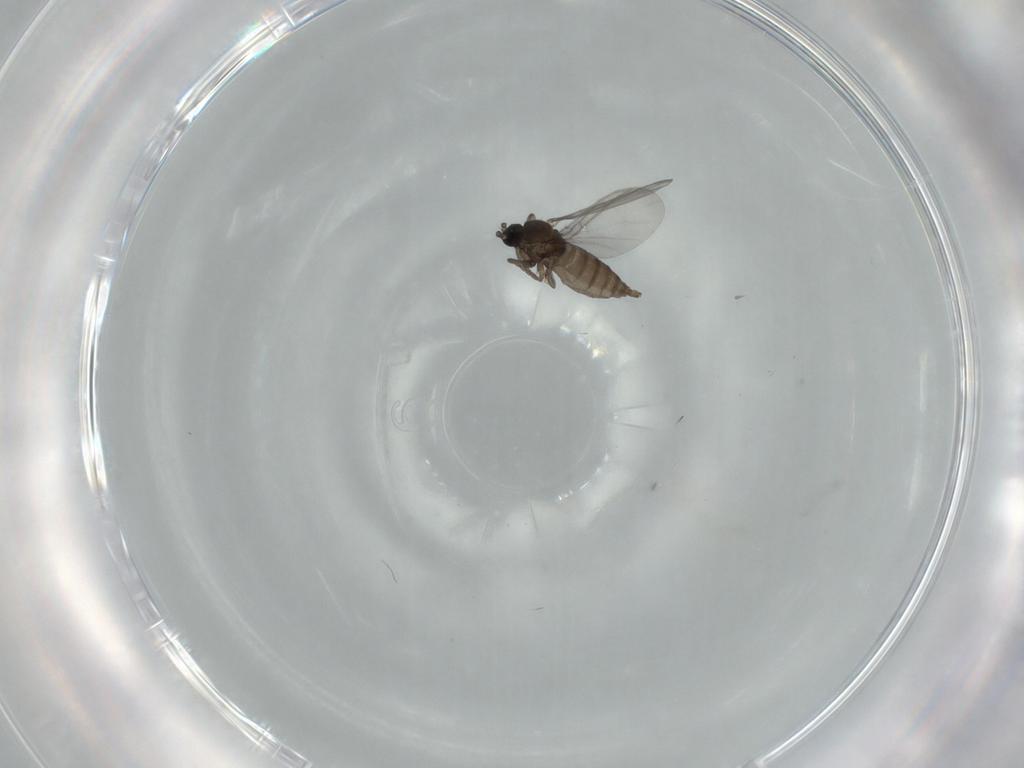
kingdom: Animalia
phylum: Arthropoda
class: Insecta
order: Diptera
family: Sciaridae
